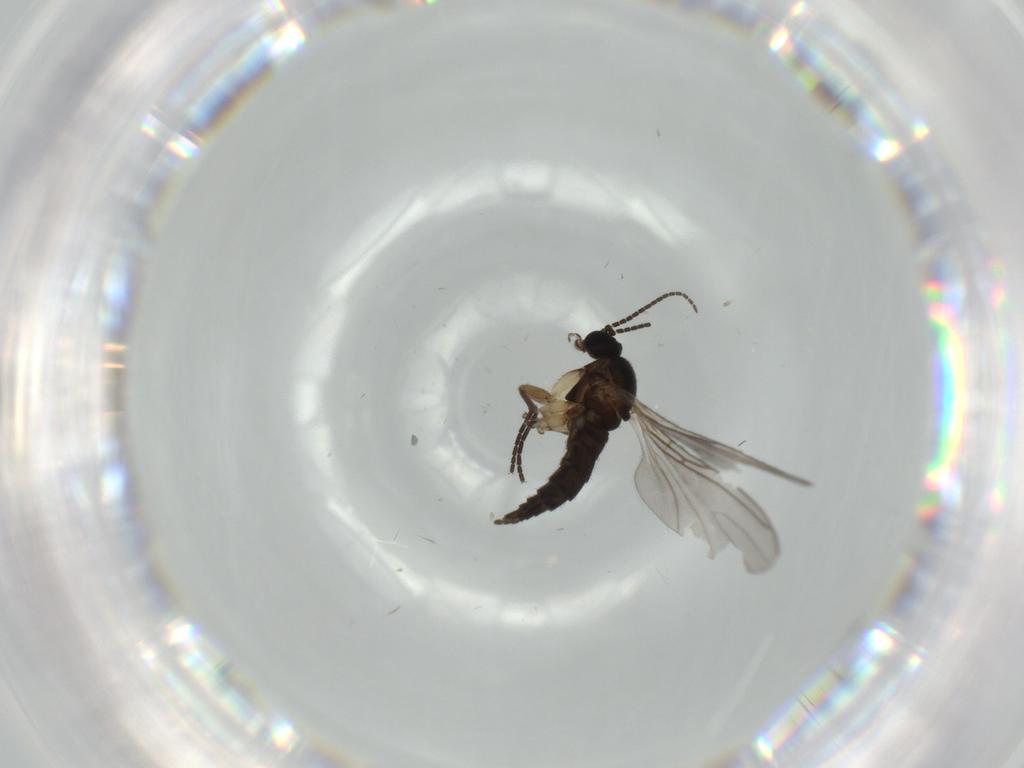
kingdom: Animalia
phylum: Arthropoda
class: Insecta
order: Diptera
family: Sciaridae
